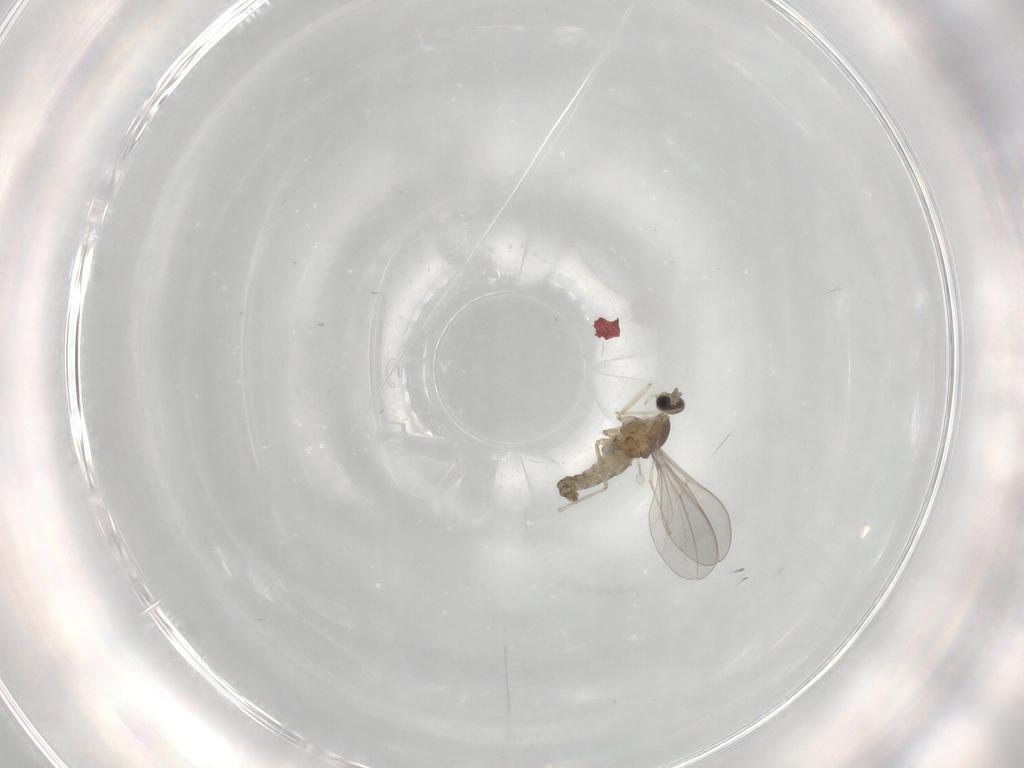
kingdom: Animalia
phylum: Arthropoda
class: Insecta
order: Diptera
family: Cecidomyiidae
